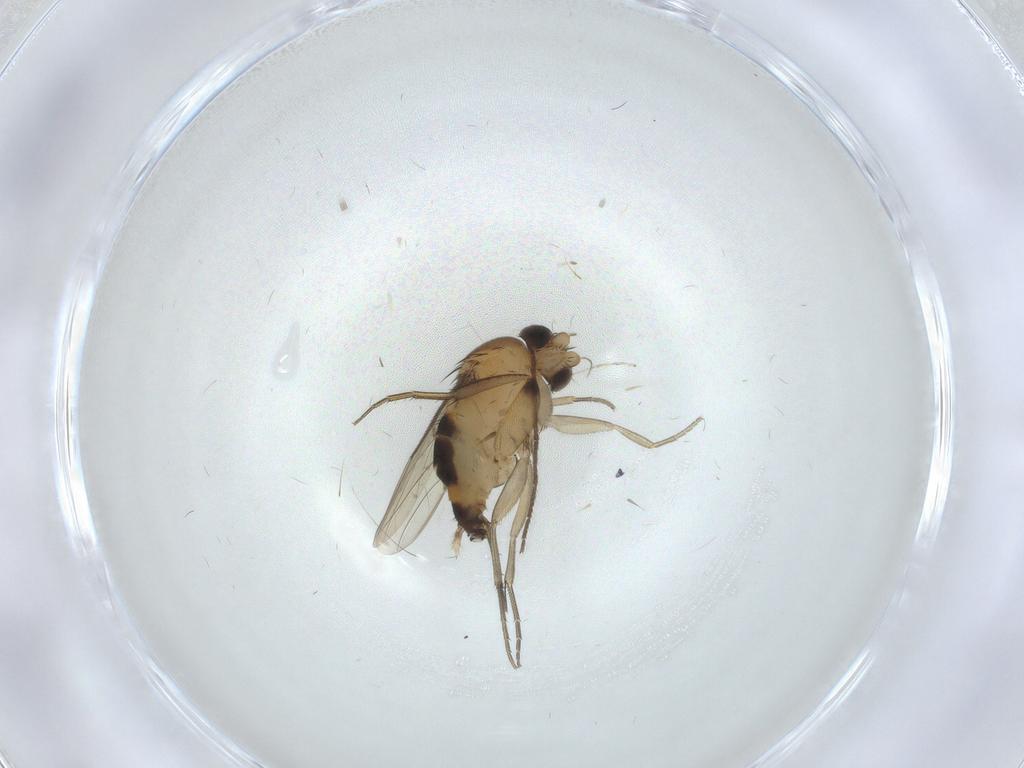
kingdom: Animalia
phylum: Arthropoda
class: Insecta
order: Diptera
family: Phoridae
